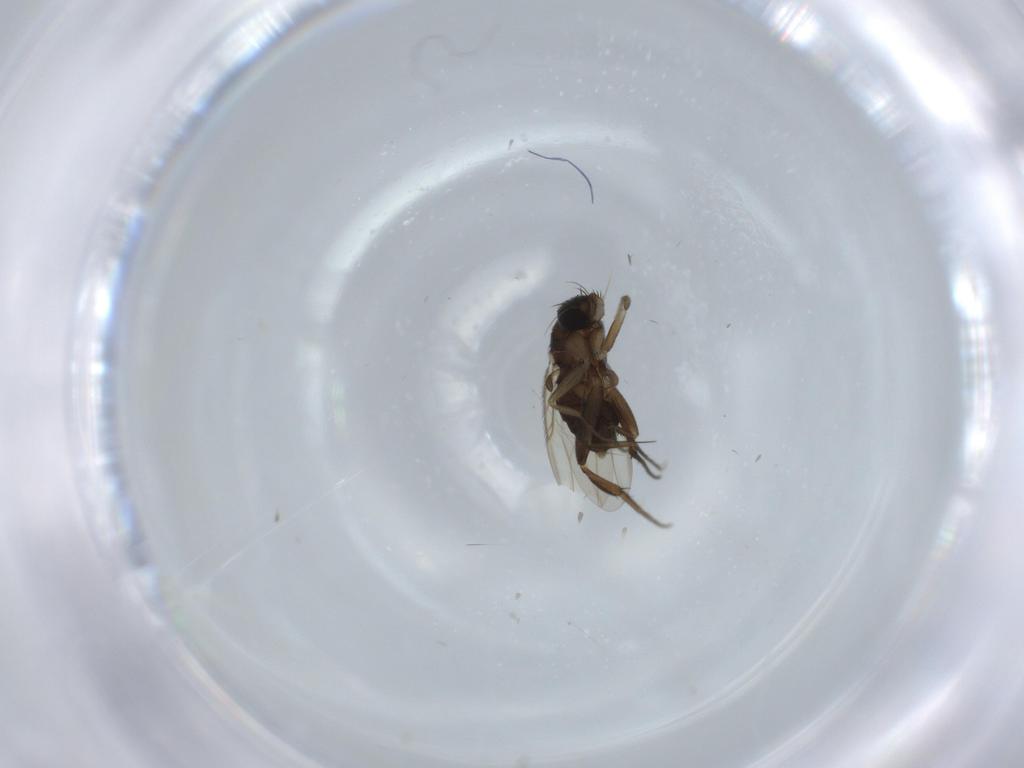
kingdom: Animalia
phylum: Arthropoda
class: Insecta
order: Diptera
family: Phoridae
